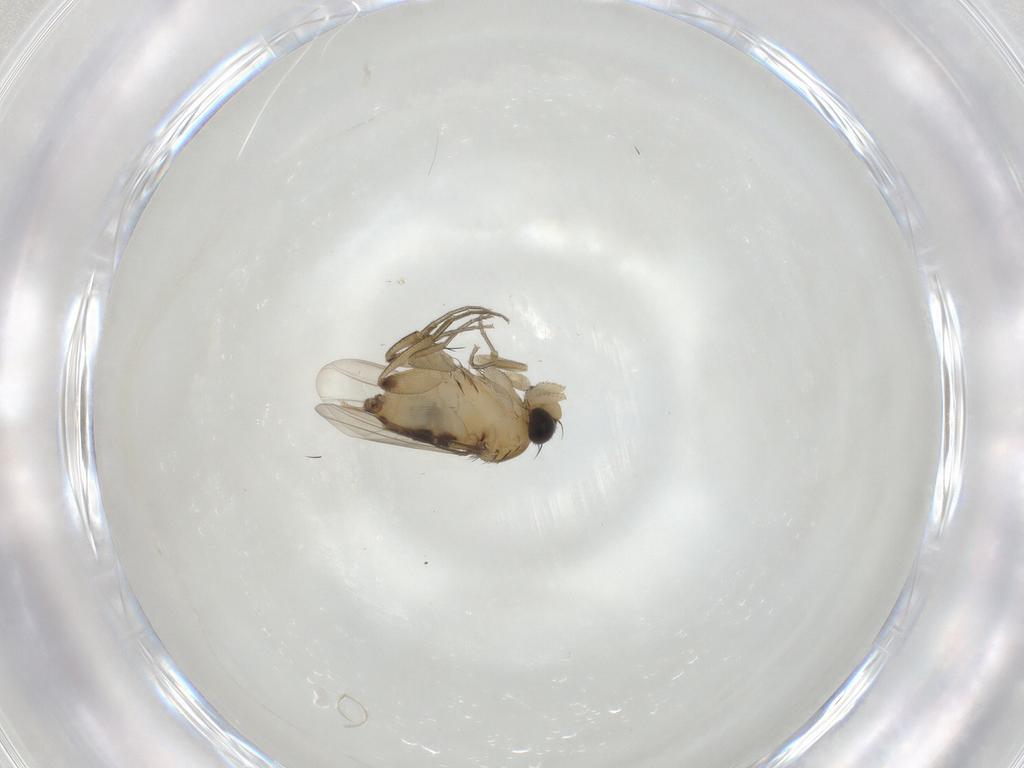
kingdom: Animalia
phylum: Arthropoda
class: Insecta
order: Diptera
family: Phoridae
